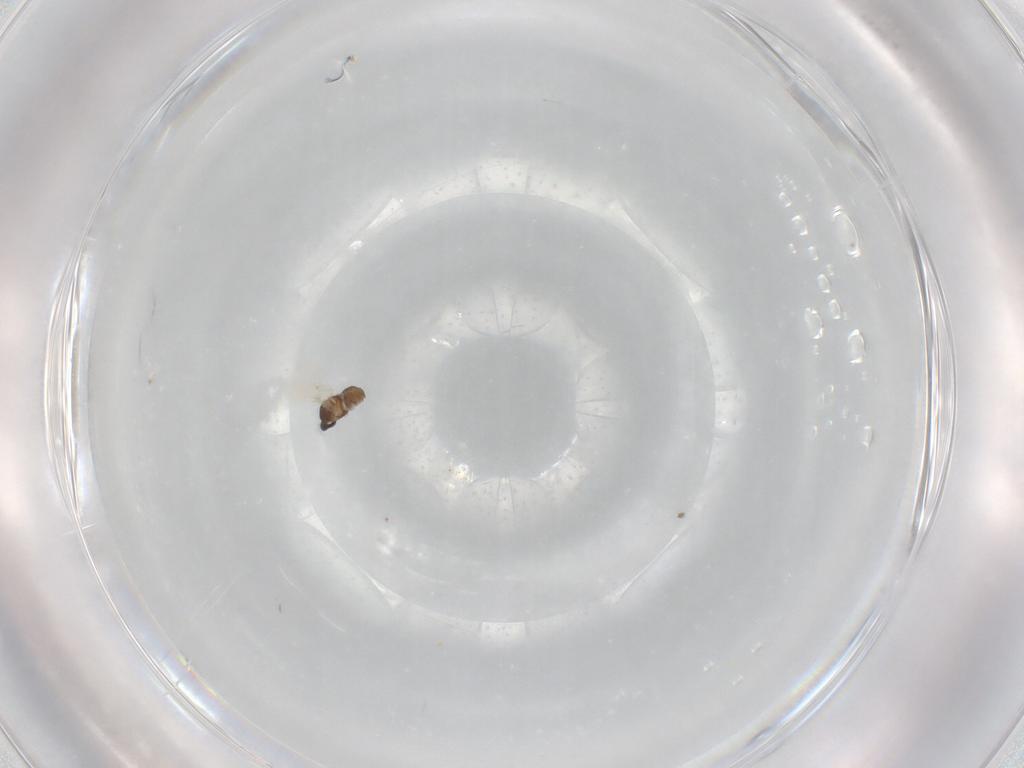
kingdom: Animalia
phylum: Arthropoda
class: Insecta
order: Diptera
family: Cecidomyiidae
